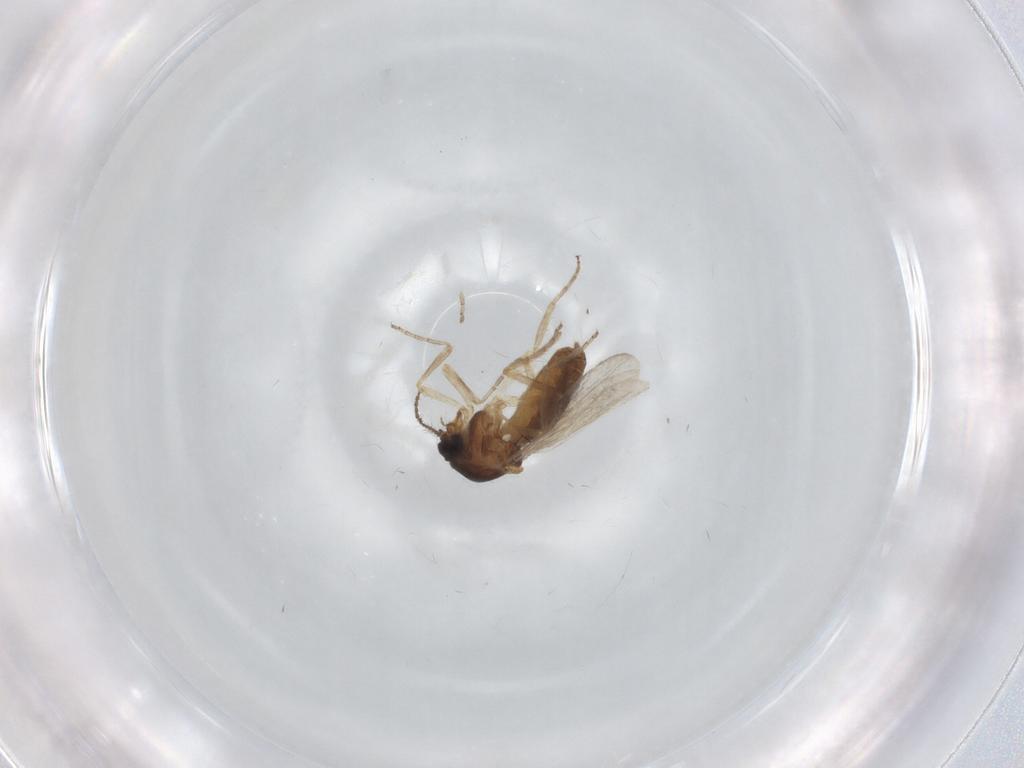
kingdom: Animalia
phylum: Arthropoda
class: Insecta
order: Diptera
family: Ceratopogonidae
